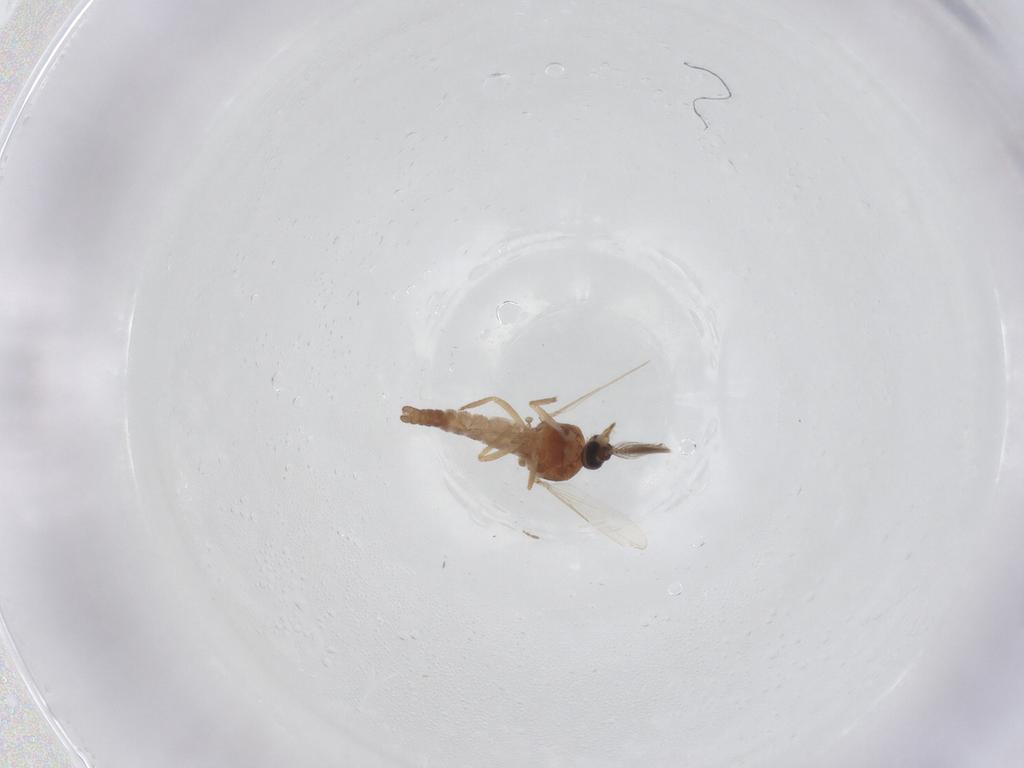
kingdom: Animalia
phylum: Arthropoda
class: Insecta
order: Diptera
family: Ceratopogonidae
